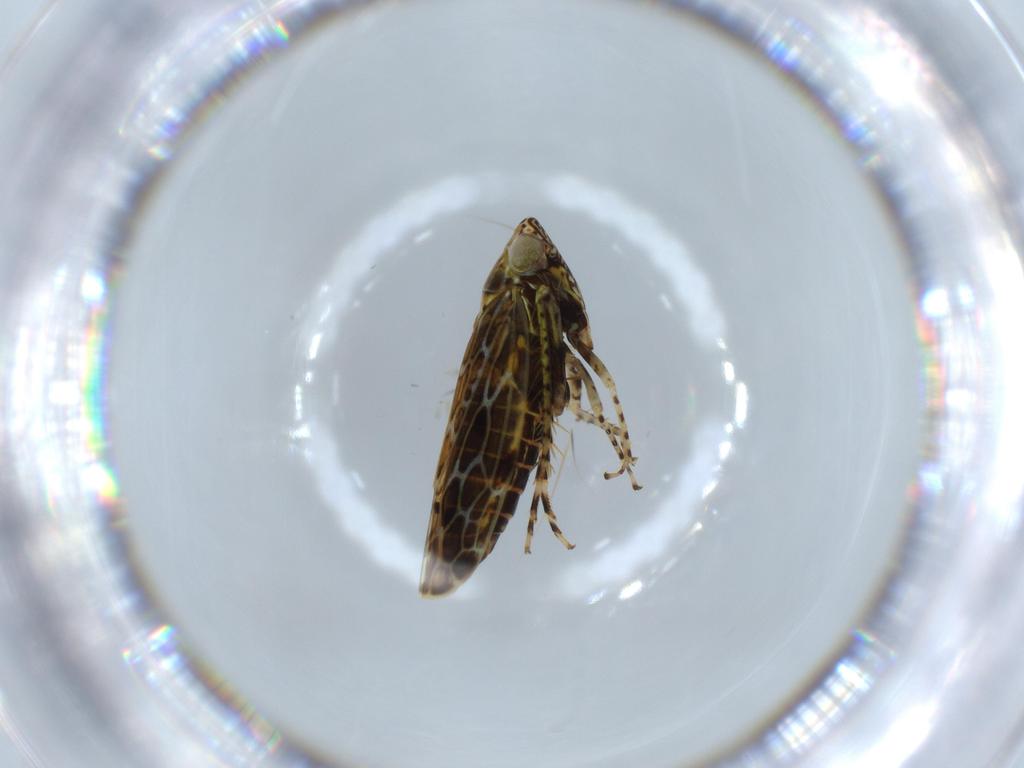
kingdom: Animalia
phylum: Arthropoda
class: Insecta
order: Hemiptera
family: Cicadellidae
